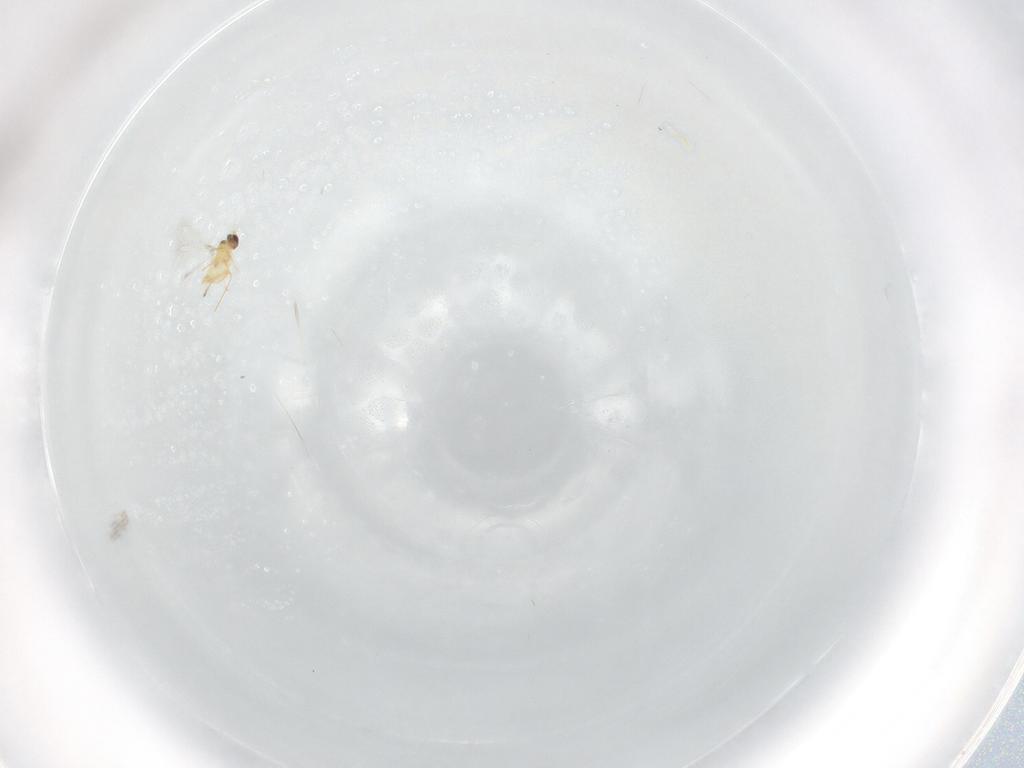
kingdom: Animalia
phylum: Arthropoda
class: Insecta
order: Hymenoptera
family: Mymaridae
